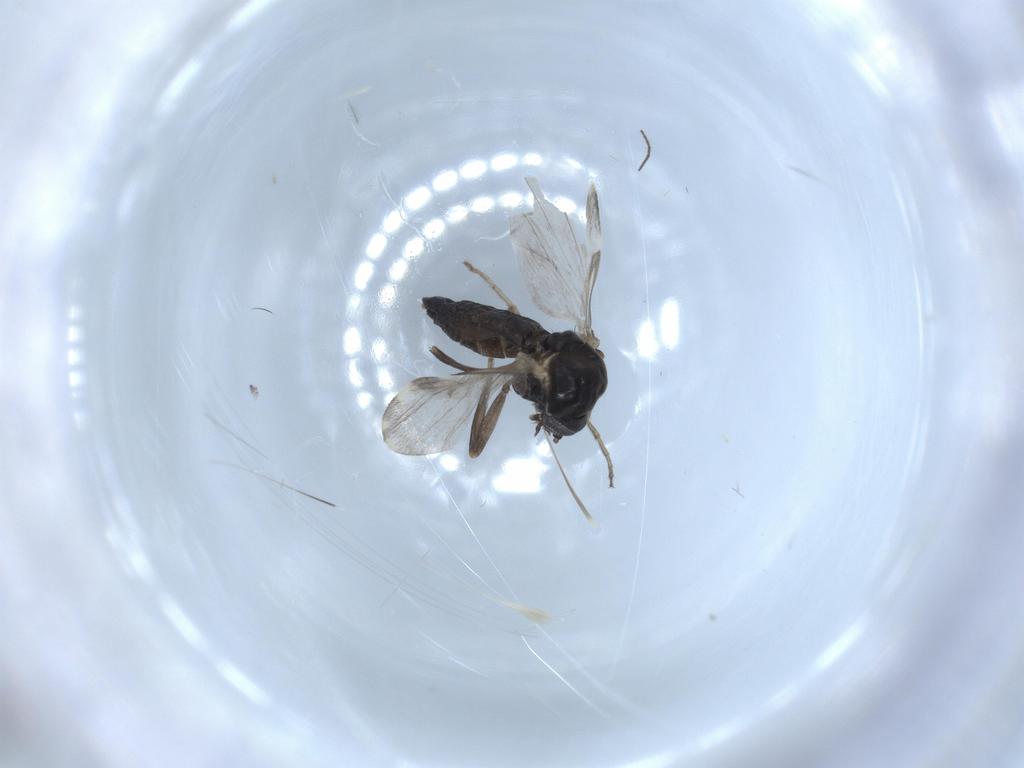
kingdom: Animalia
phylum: Arthropoda
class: Insecta
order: Diptera
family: Ceratopogonidae
